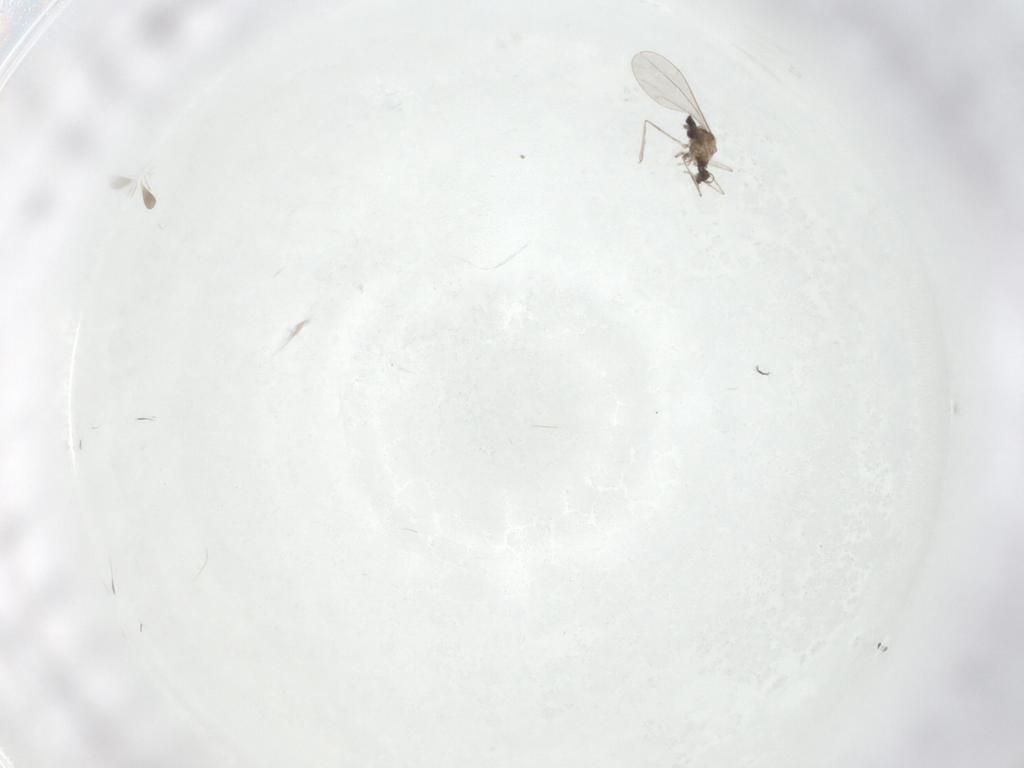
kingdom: Animalia
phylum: Arthropoda
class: Insecta
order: Diptera
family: Cecidomyiidae
